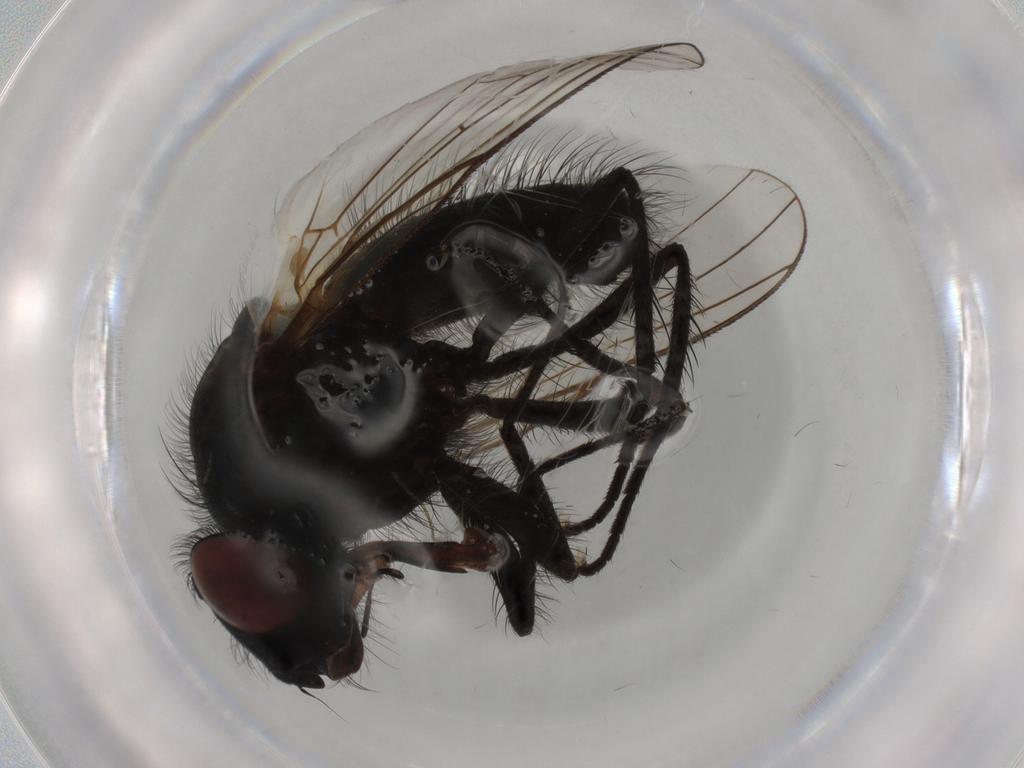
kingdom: Animalia
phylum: Arthropoda
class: Insecta
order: Diptera
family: Anthomyiidae
